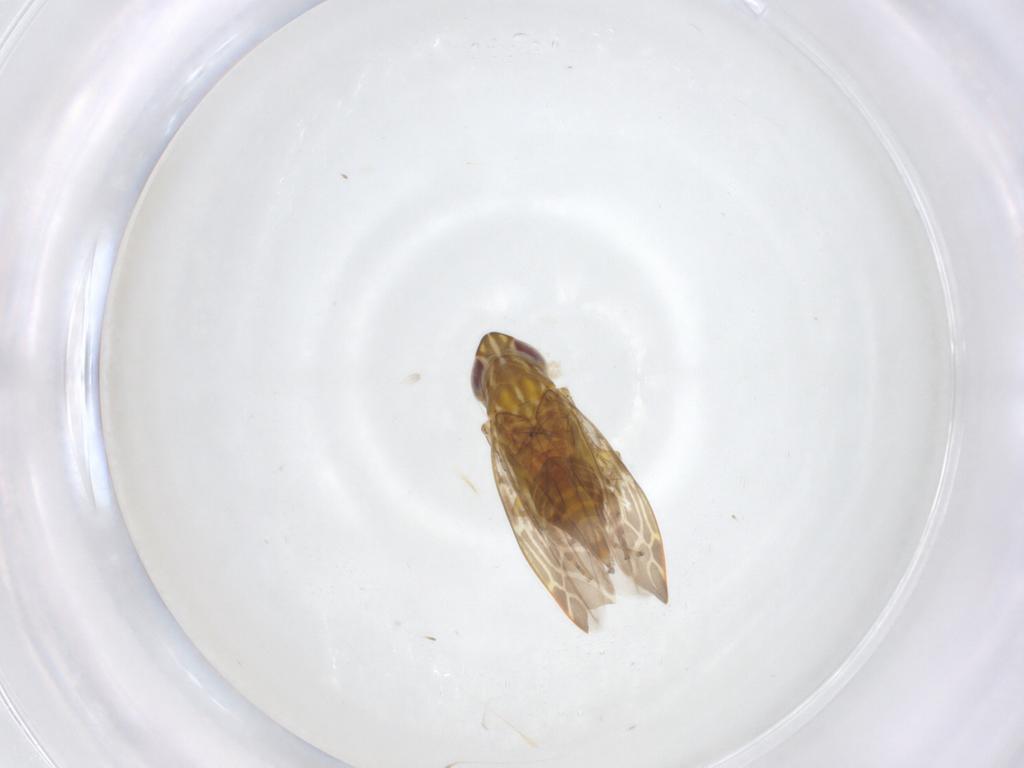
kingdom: Animalia
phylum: Arthropoda
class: Insecta
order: Hemiptera
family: Cicadellidae
